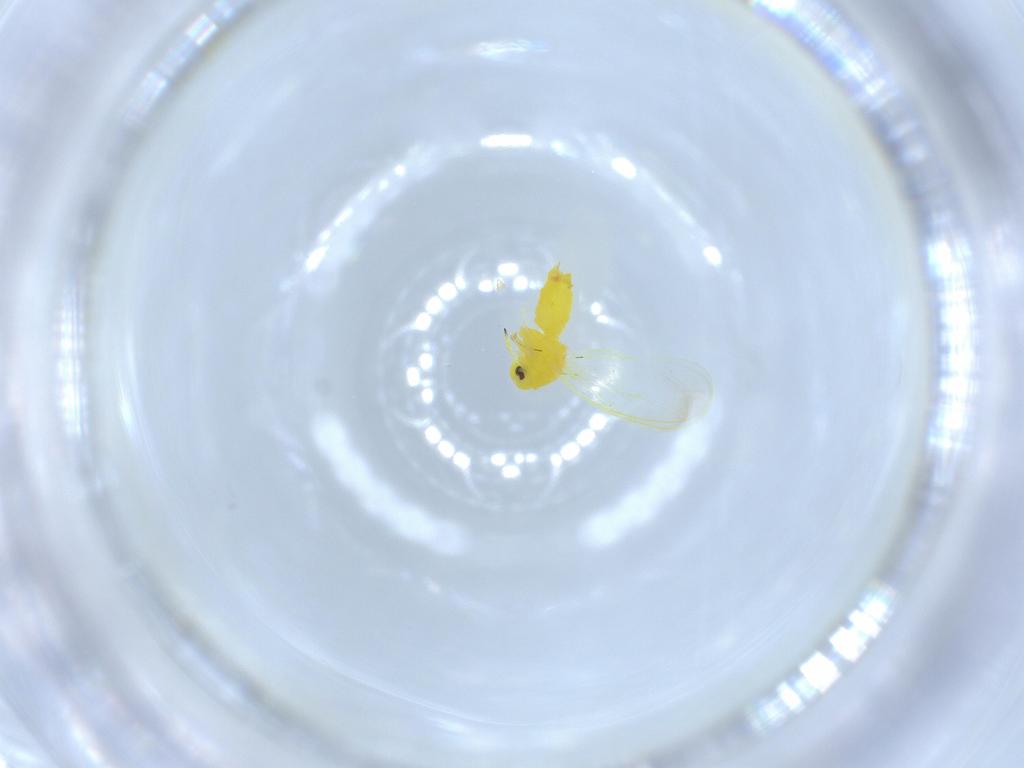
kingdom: Animalia
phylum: Arthropoda
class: Insecta
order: Hemiptera
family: Aleyrodidae
